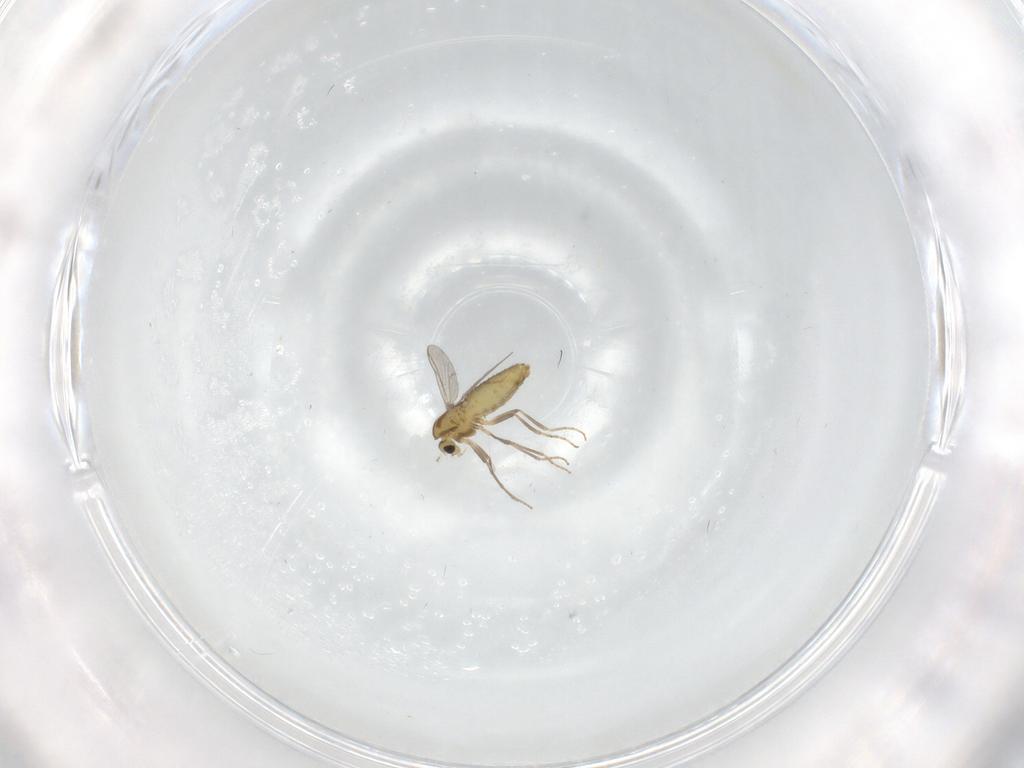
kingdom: Animalia
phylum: Arthropoda
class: Insecta
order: Diptera
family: Chironomidae
